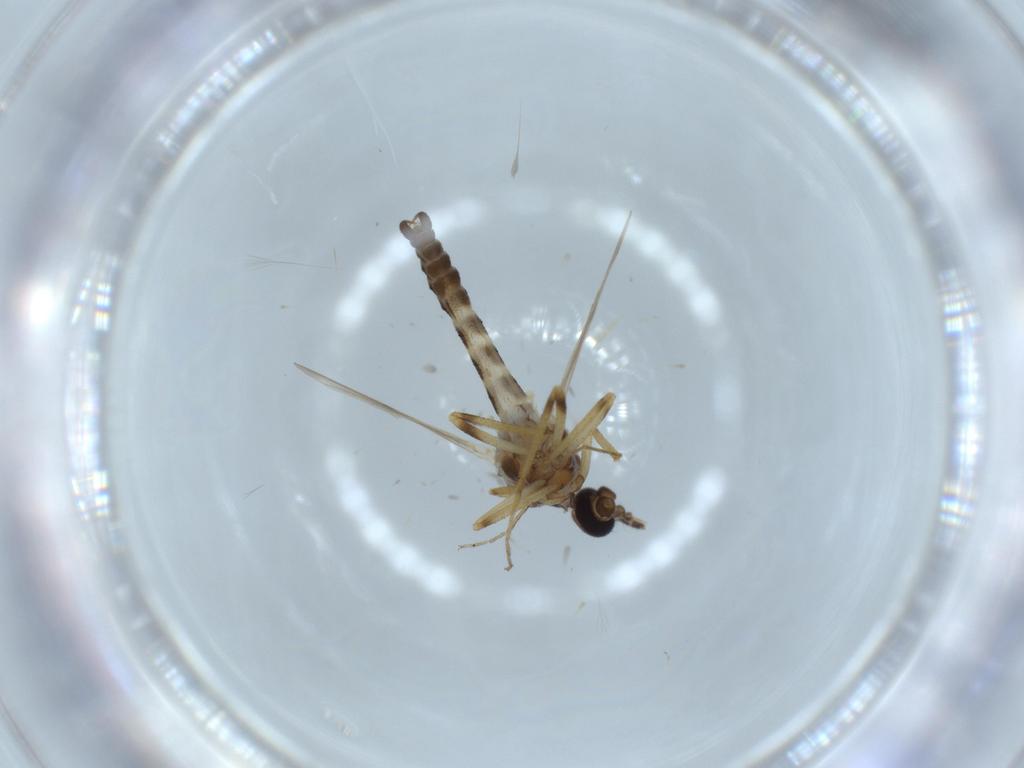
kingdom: Animalia
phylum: Arthropoda
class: Insecta
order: Diptera
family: Ceratopogonidae
